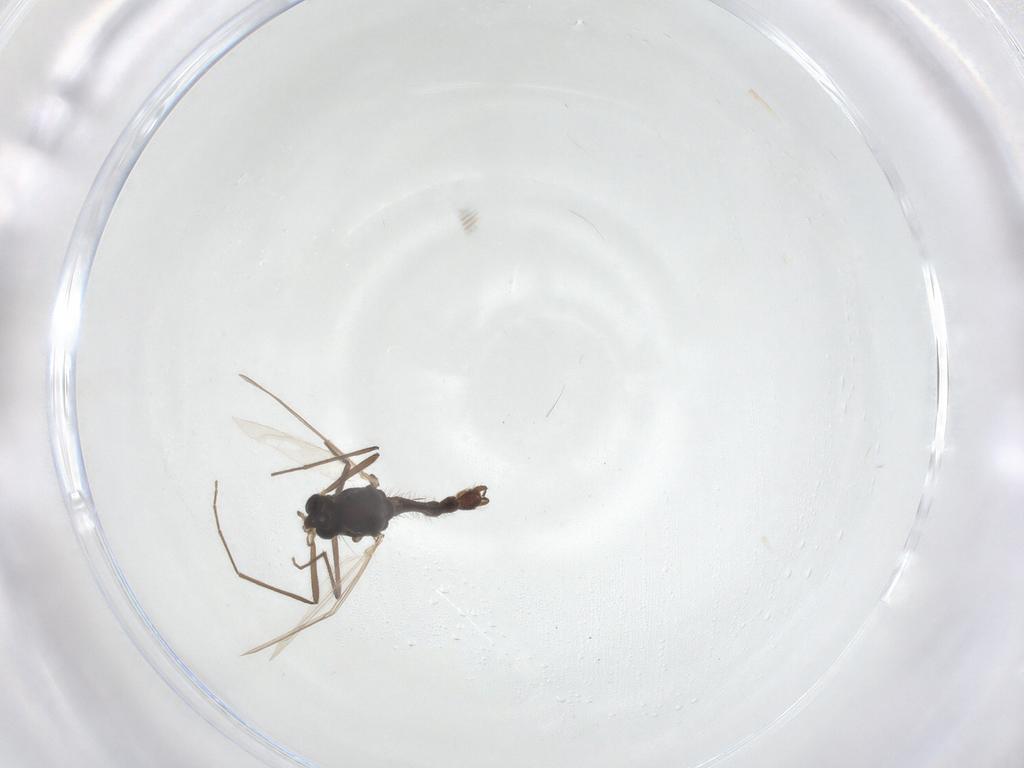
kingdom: Animalia
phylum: Arthropoda
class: Insecta
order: Diptera
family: Chironomidae
